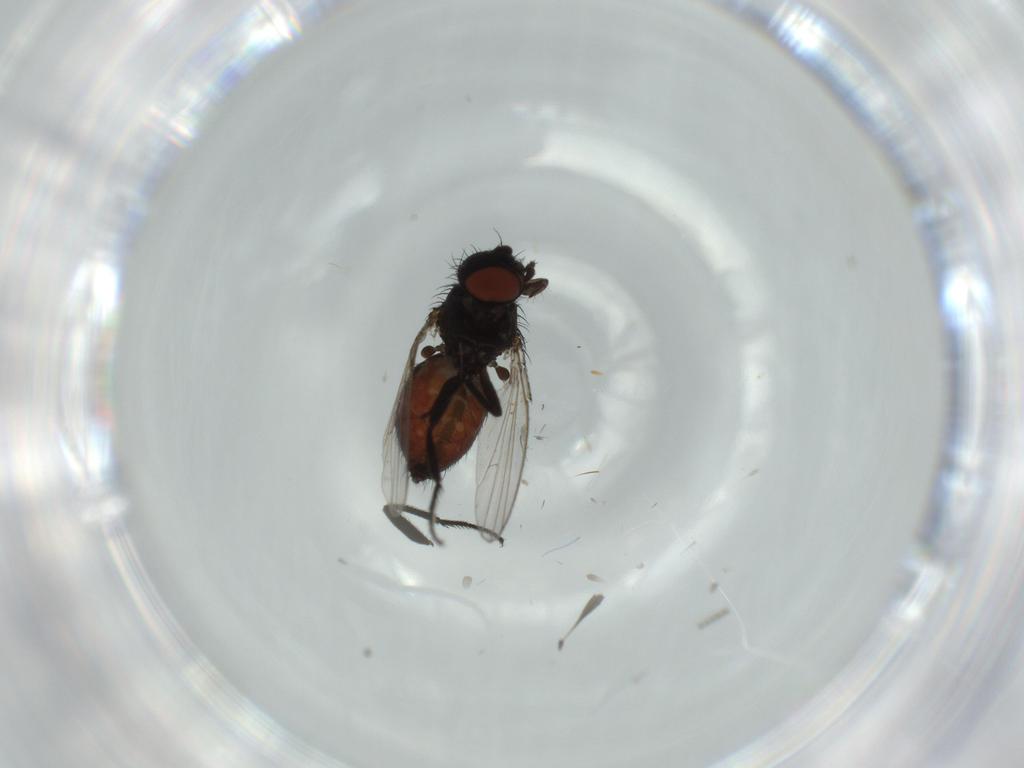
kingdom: Animalia
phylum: Arthropoda
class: Insecta
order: Diptera
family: Ceratopogonidae
